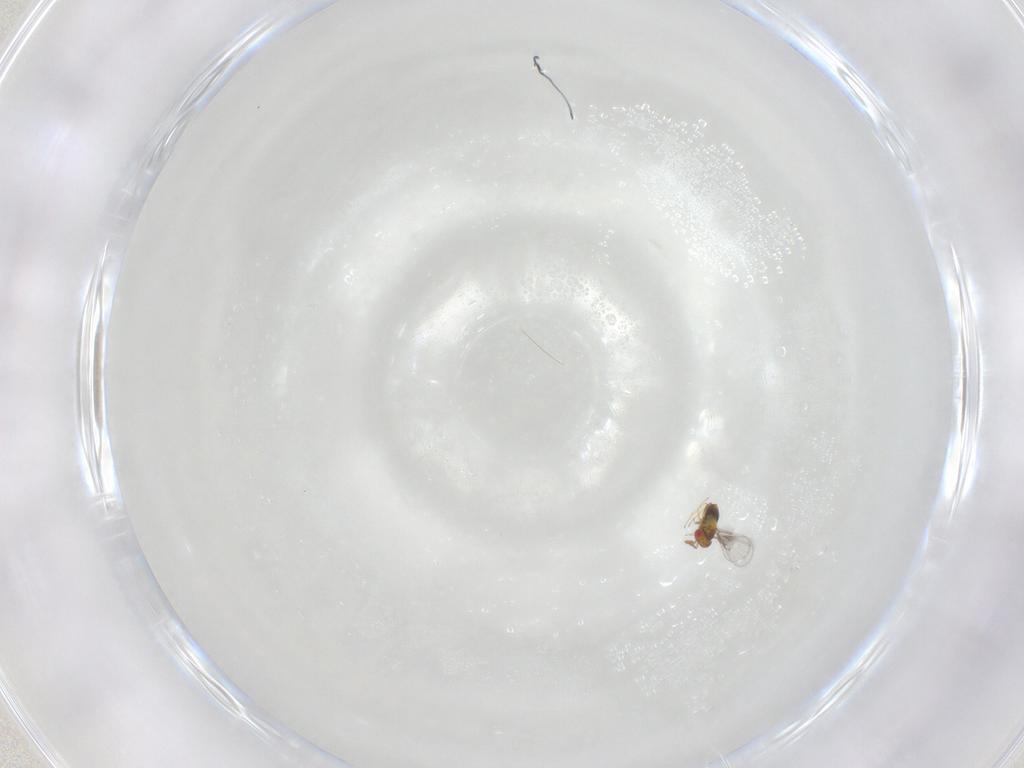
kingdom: Animalia
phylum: Arthropoda
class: Insecta
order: Hymenoptera
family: Trichogrammatidae
